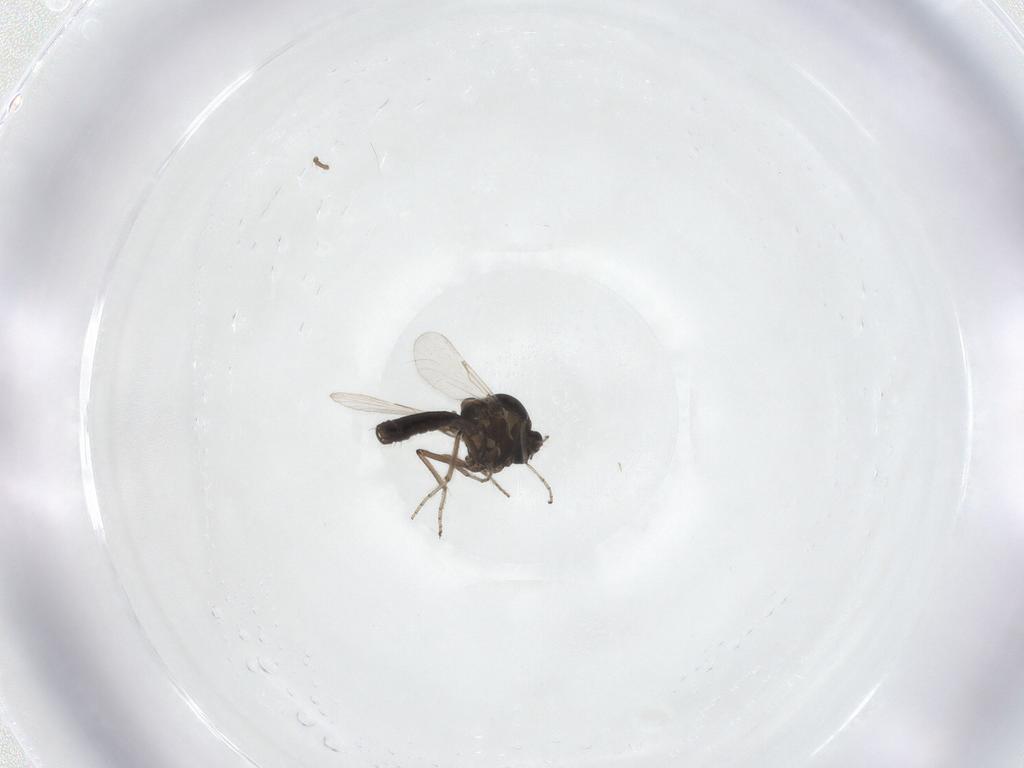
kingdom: Animalia
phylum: Arthropoda
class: Insecta
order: Diptera
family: Ceratopogonidae
